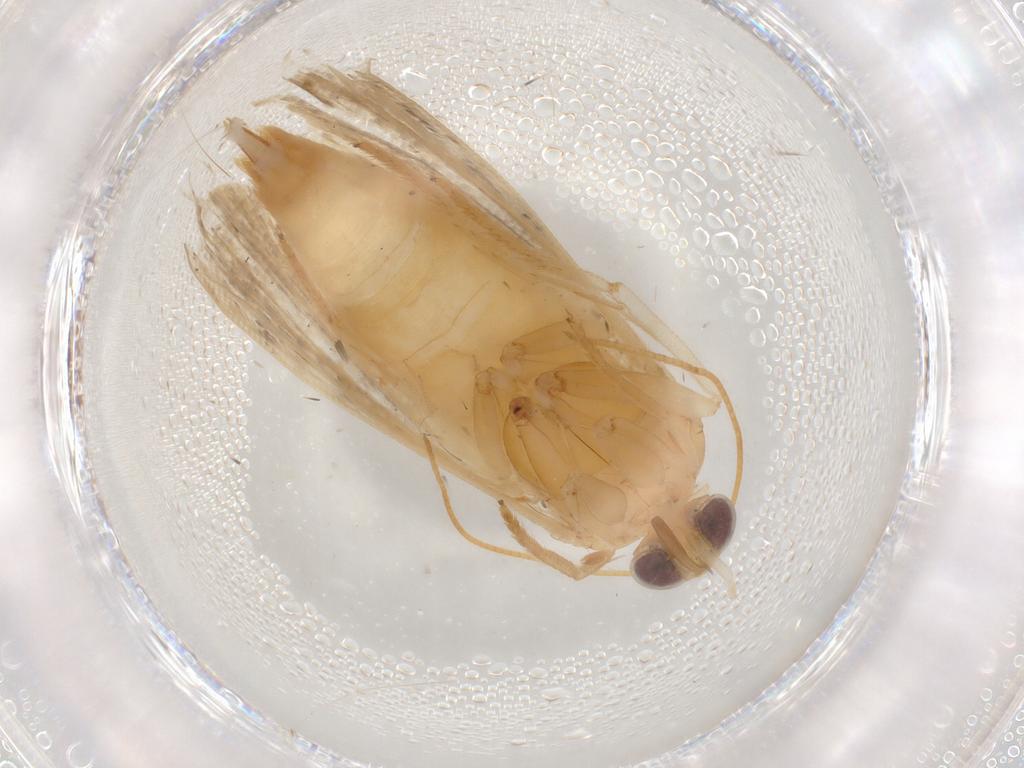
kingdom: Animalia
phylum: Arthropoda
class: Insecta
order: Lepidoptera
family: Noctuidae
